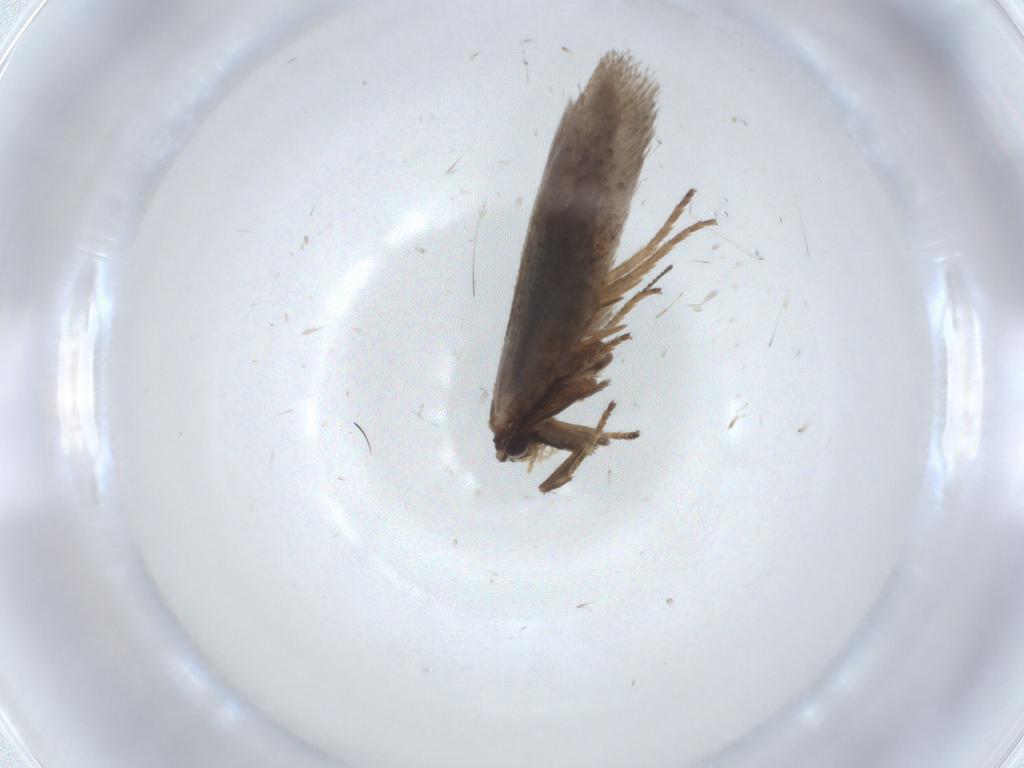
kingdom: Animalia
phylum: Arthropoda
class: Insecta
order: Lepidoptera
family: Nepticulidae
